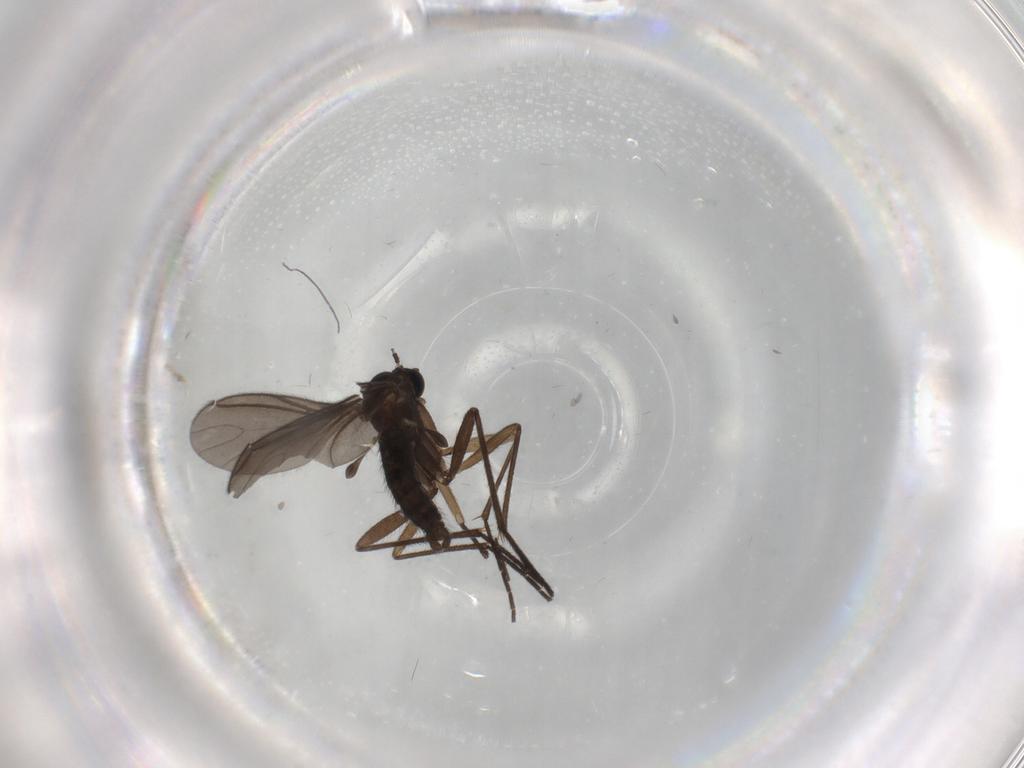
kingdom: Animalia
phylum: Arthropoda
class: Insecta
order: Diptera
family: Sciaridae
